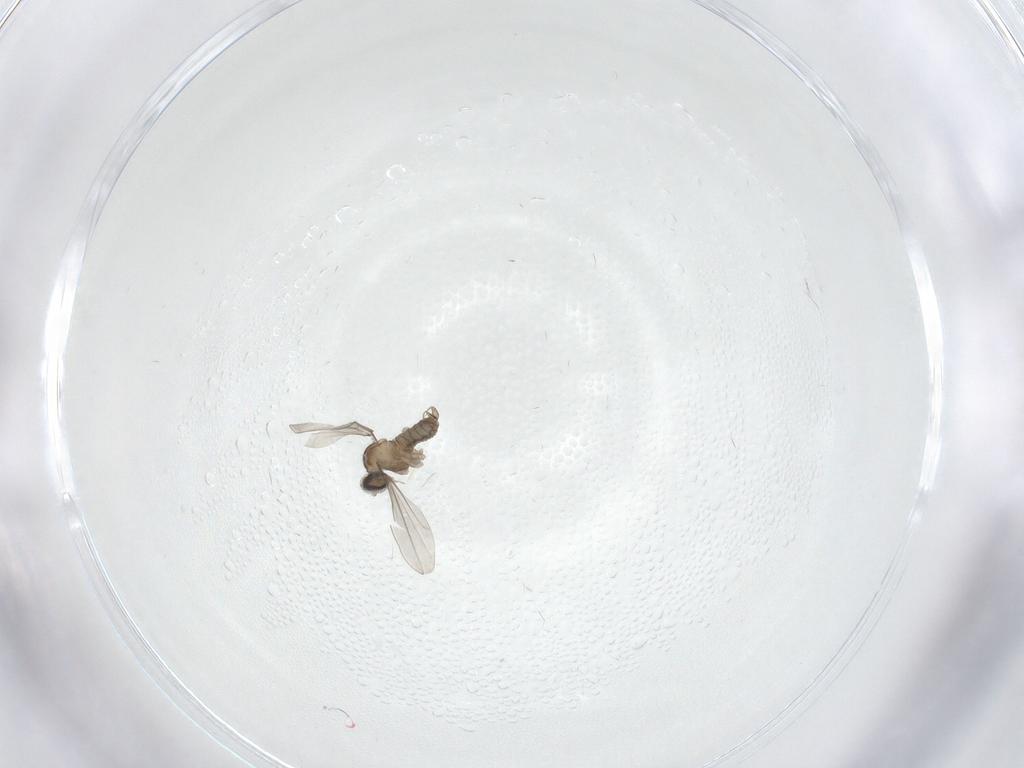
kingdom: Animalia
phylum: Arthropoda
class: Insecta
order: Diptera
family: Cecidomyiidae
